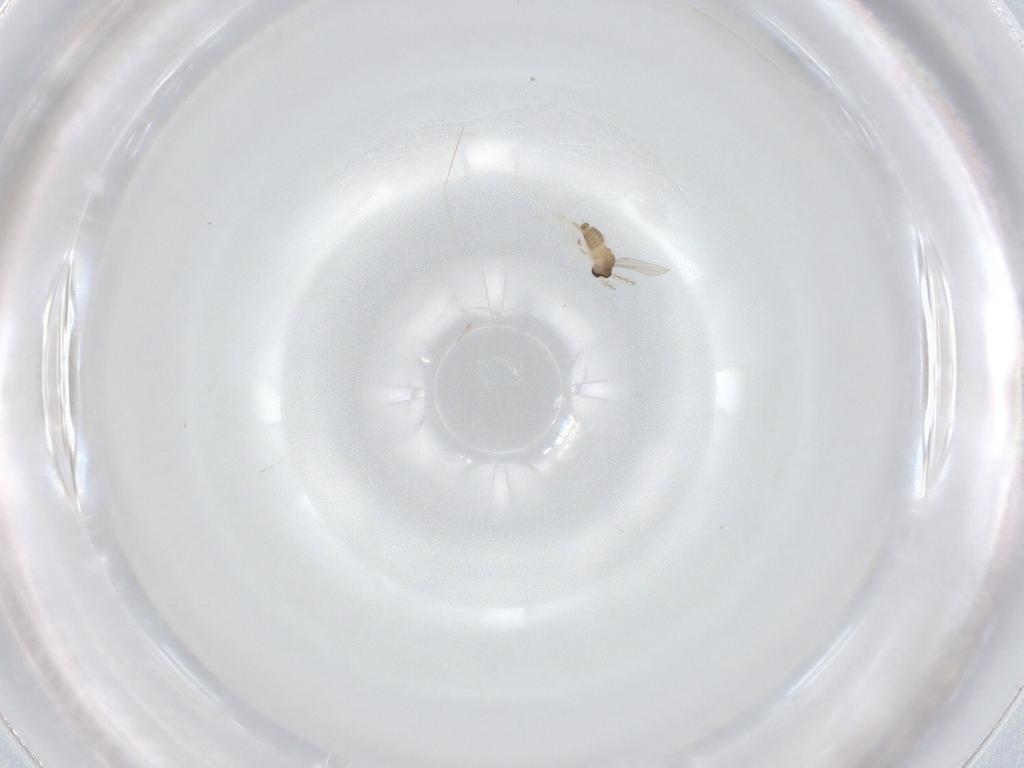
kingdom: Animalia
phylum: Arthropoda
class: Insecta
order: Diptera
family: Cecidomyiidae
